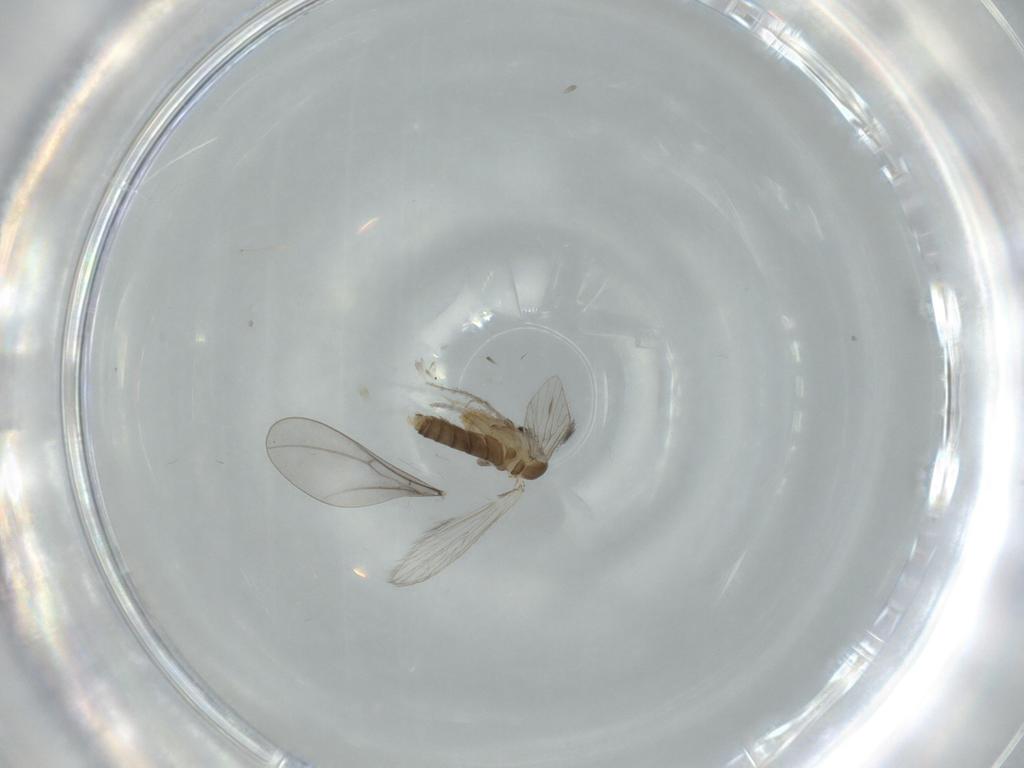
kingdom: Animalia
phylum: Arthropoda
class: Insecta
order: Diptera
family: Psychodidae
